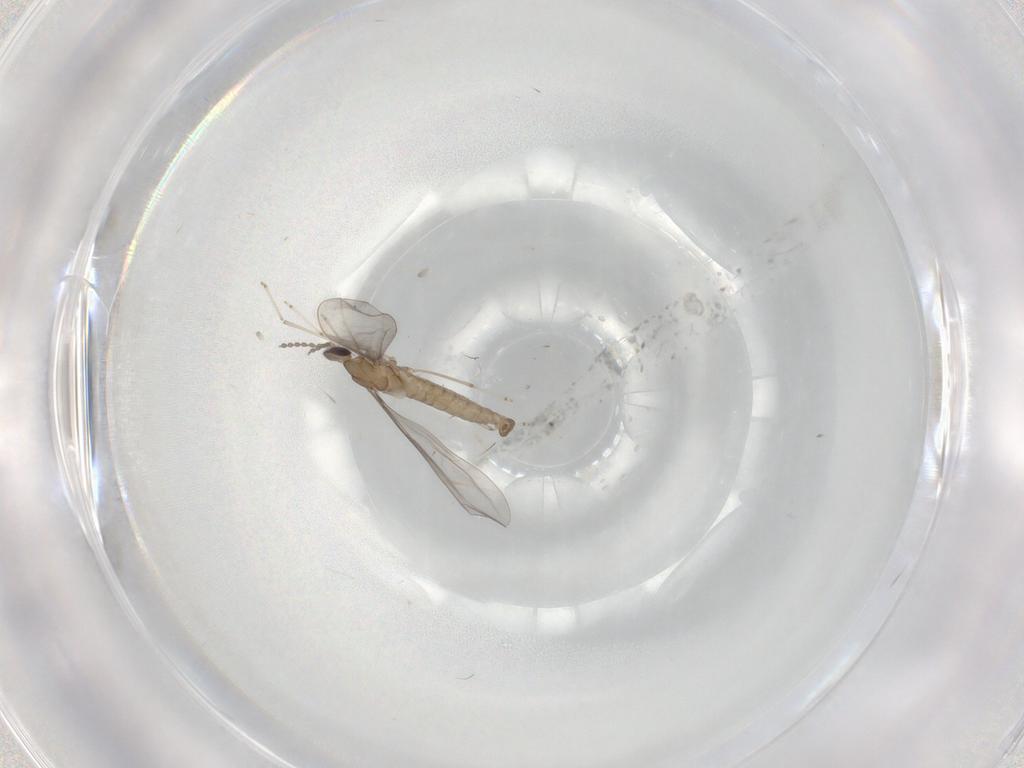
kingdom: Animalia
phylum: Arthropoda
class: Insecta
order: Diptera
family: Cecidomyiidae
